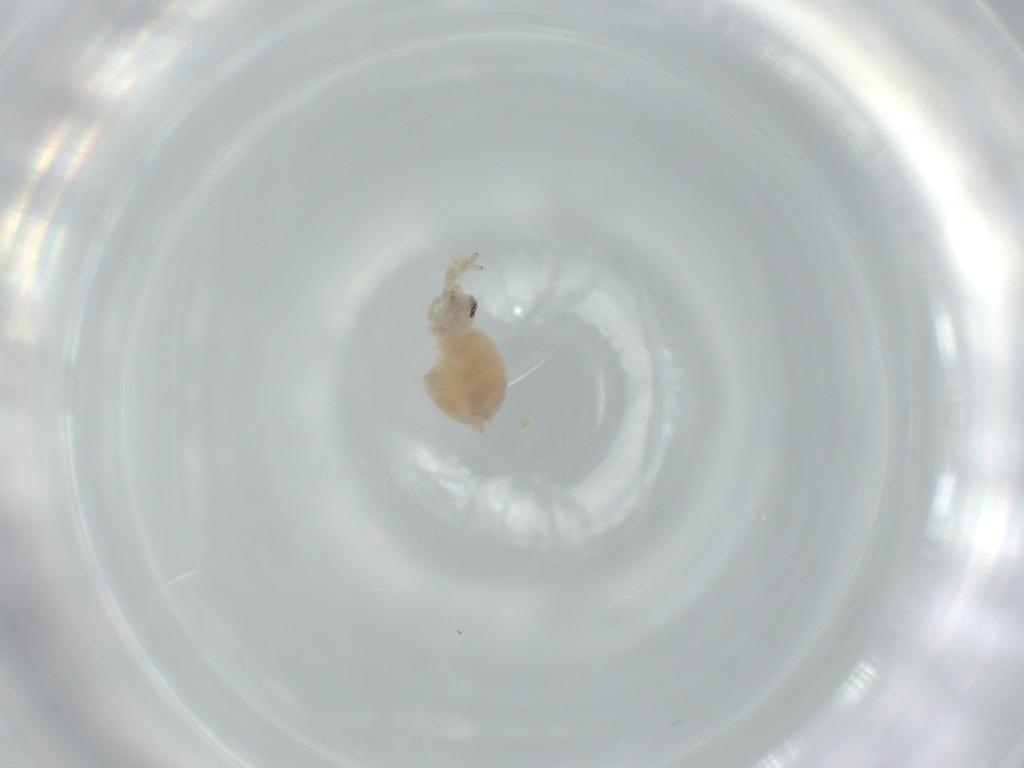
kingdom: Animalia
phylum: Arthropoda
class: Arachnida
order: Araneae
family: Oonopidae
